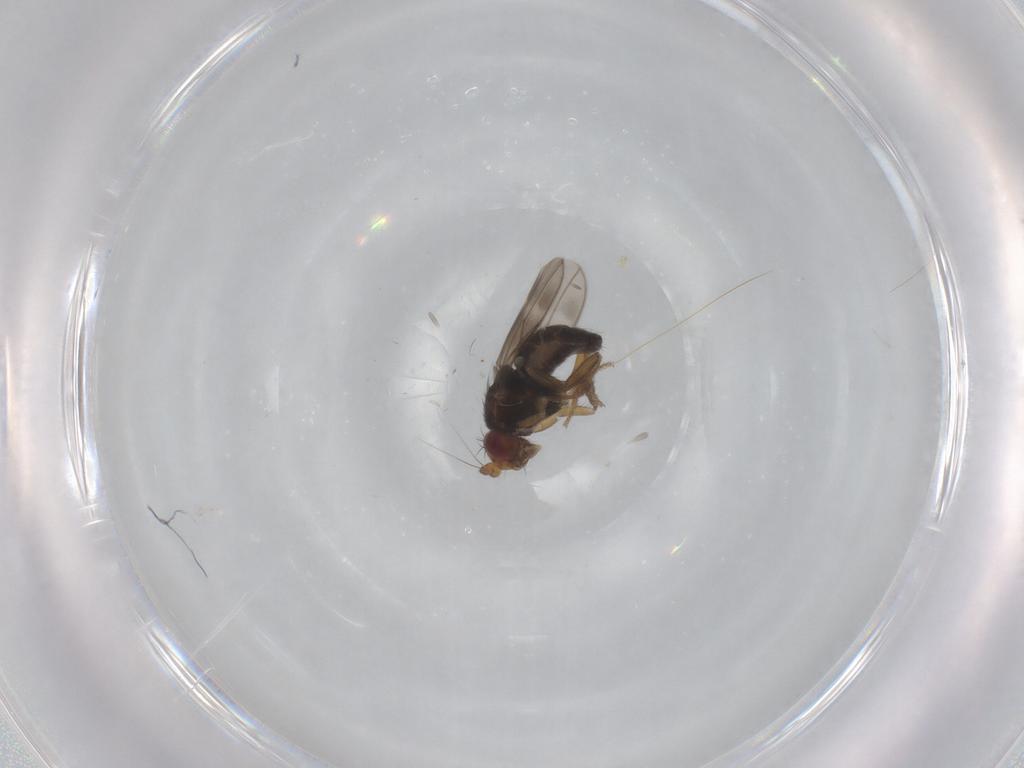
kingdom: Animalia
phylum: Arthropoda
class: Insecta
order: Diptera
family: Sphaeroceridae
